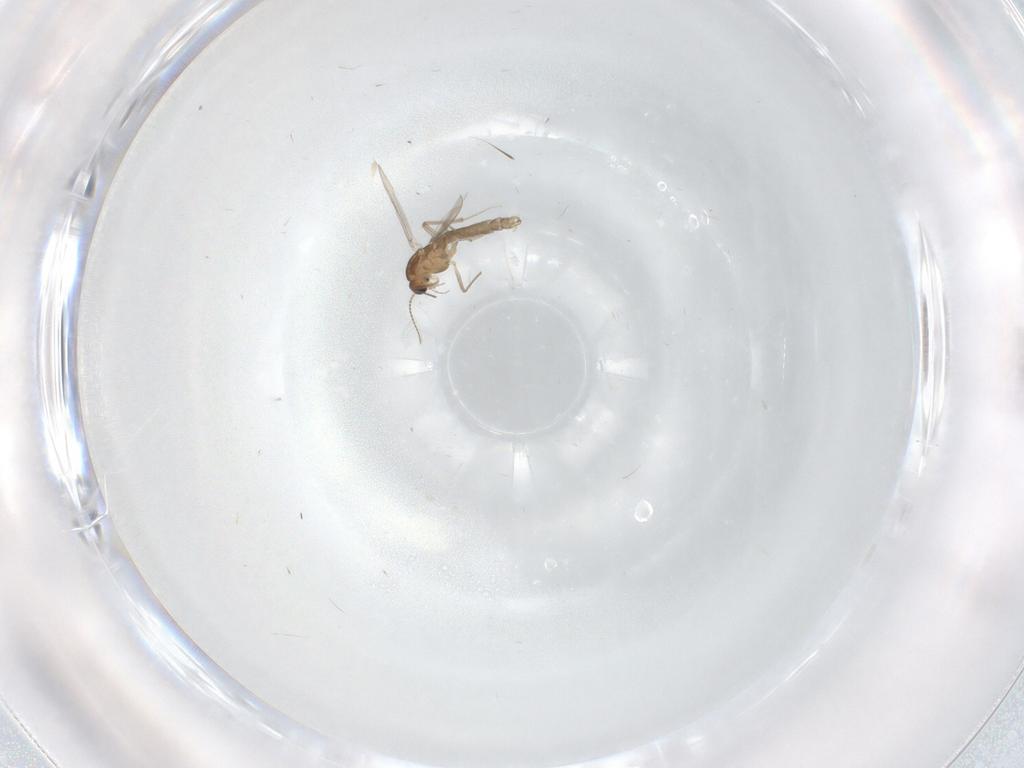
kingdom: Animalia
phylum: Arthropoda
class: Insecta
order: Diptera
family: Chironomidae
